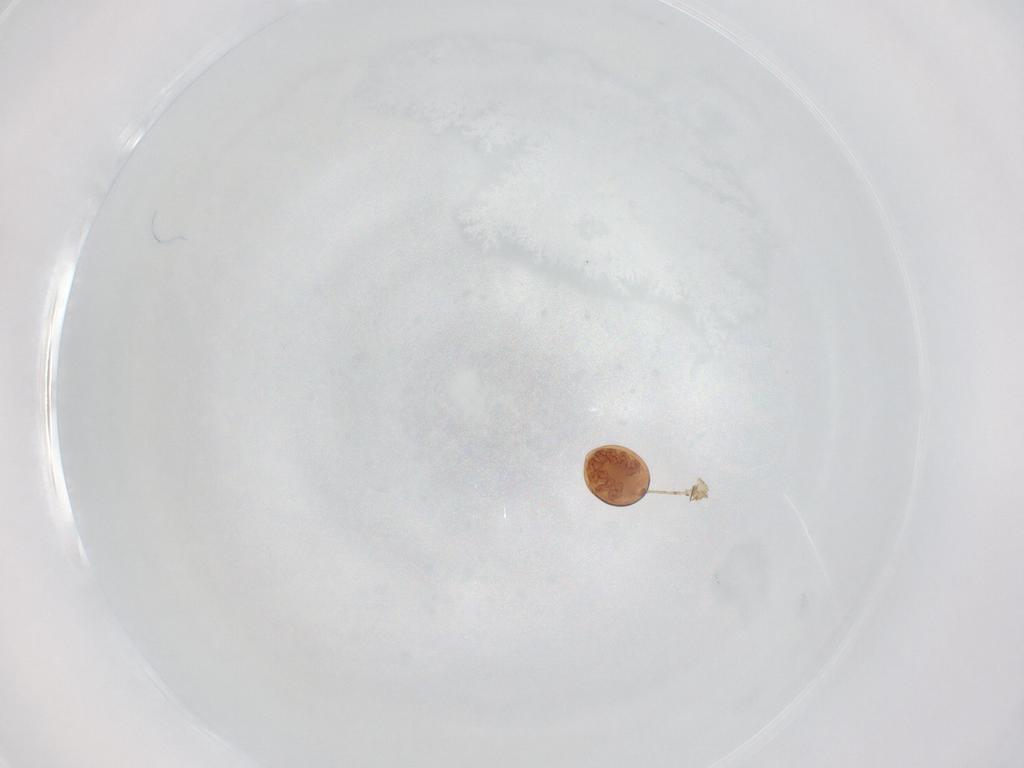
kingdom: Animalia
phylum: Arthropoda
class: Arachnida
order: Mesostigmata
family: Uropodidae
